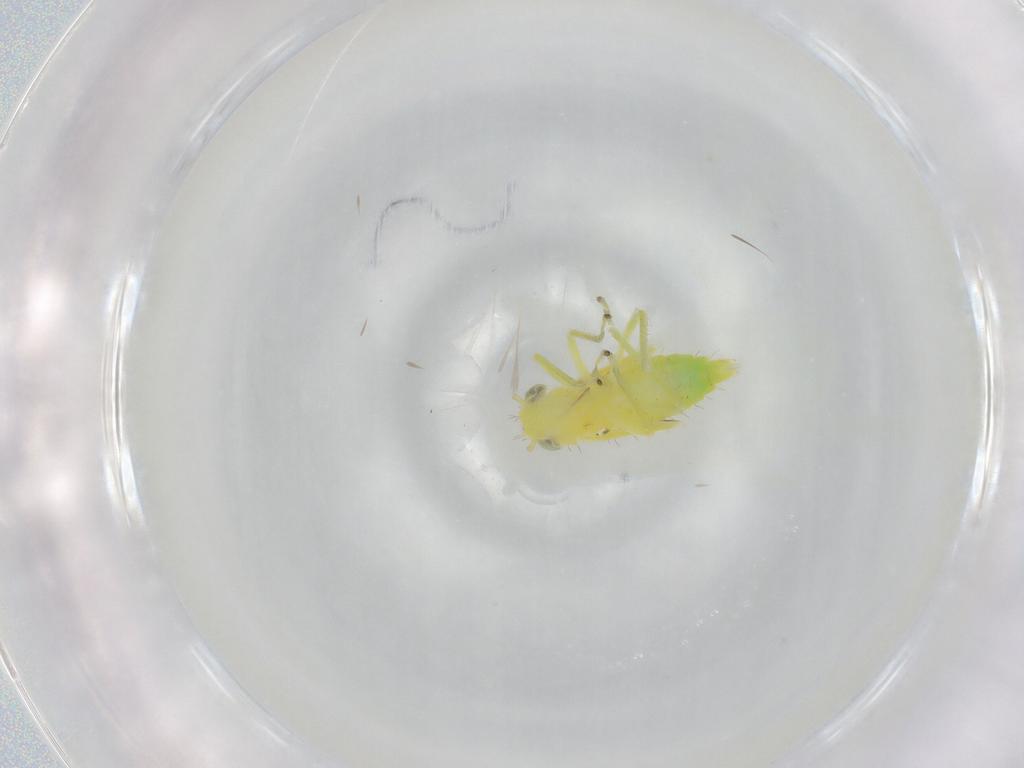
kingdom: Animalia
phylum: Arthropoda
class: Insecta
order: Hemiptera
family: Cicadellidae
